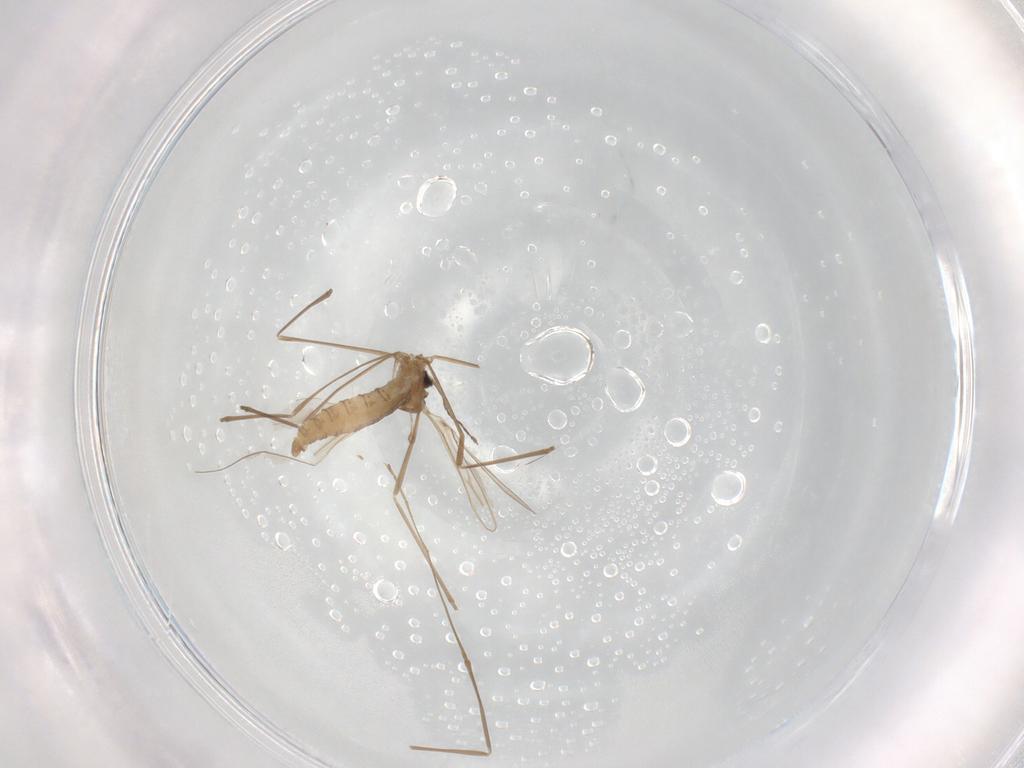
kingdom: Animalia
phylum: Arthropoda
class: Insecta
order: Diptera
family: Cecidomyiidae
